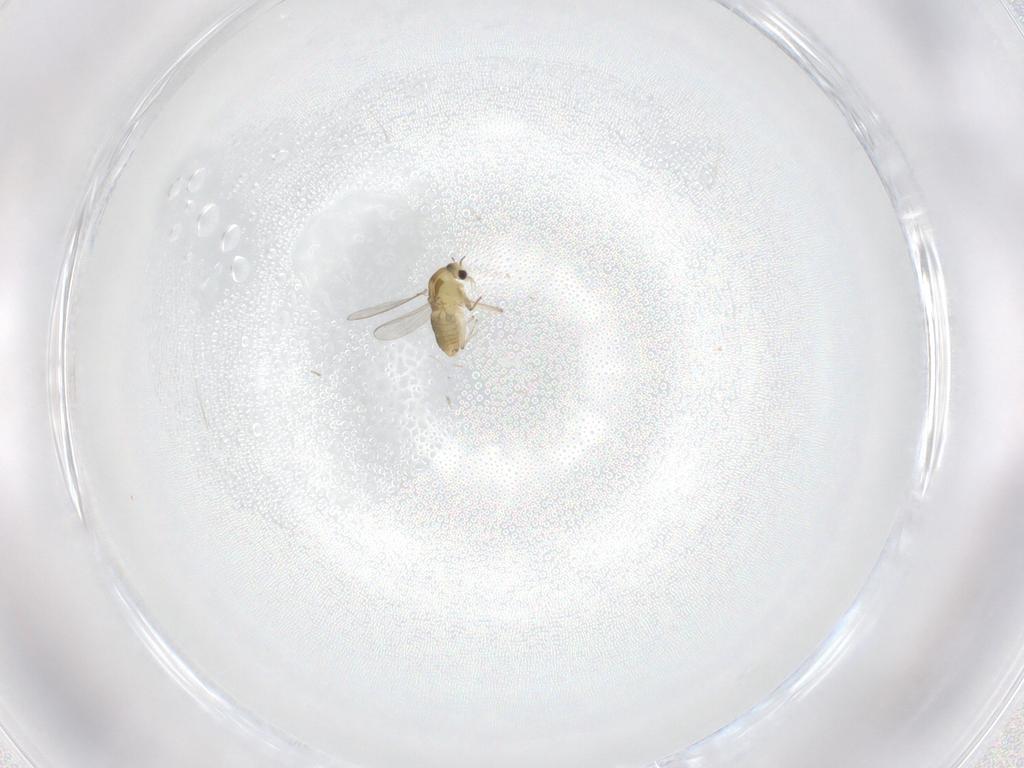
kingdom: Animalia
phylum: Arthropoda
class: Insecta
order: Diptera
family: Chironomidae
